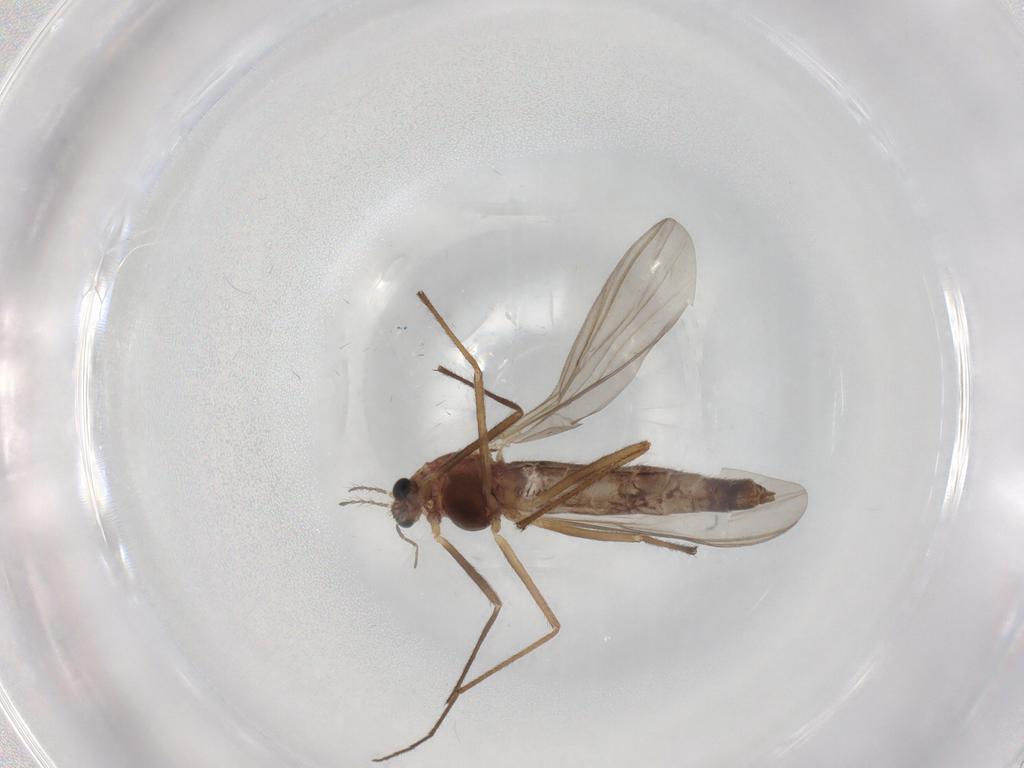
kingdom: Animalia
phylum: Arthropoda
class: Insecta
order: Diptera
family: Chironomidae
